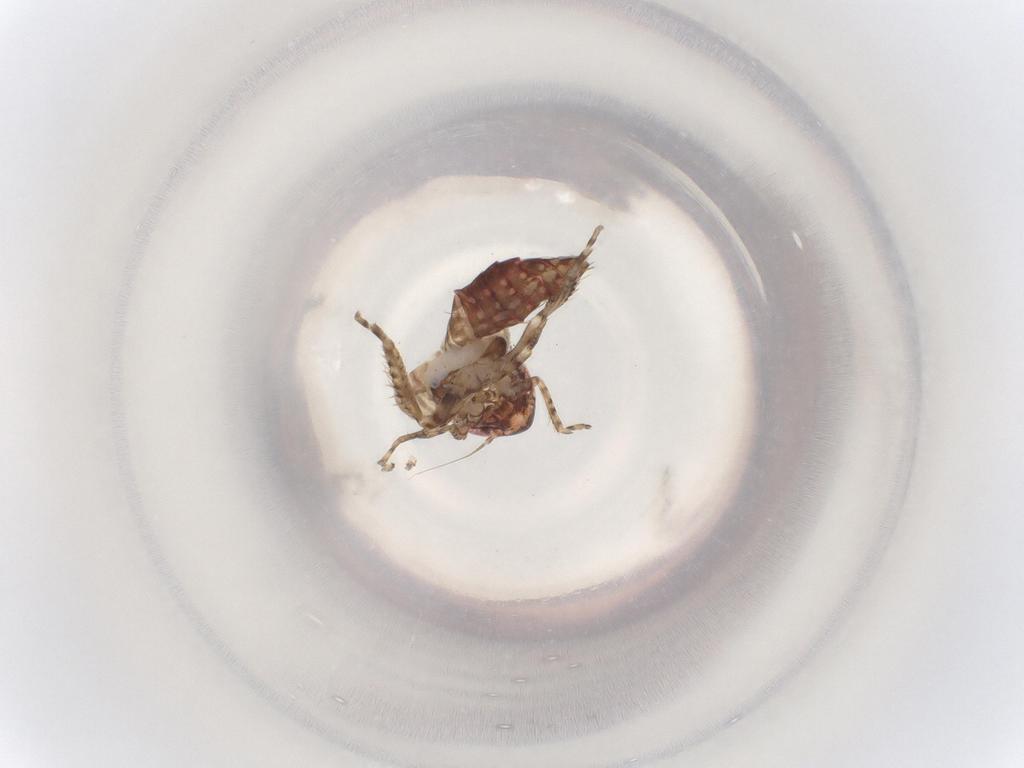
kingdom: Animalia
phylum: Arthropoda
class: Insecta
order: Hemiptera
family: Cicadellidae
